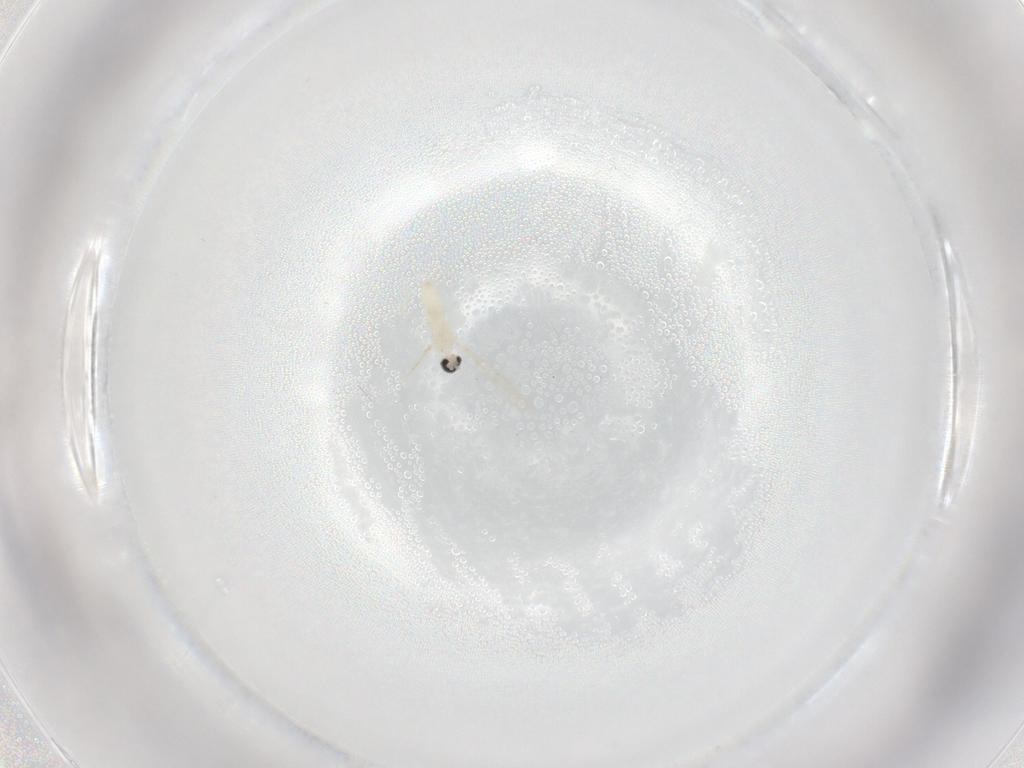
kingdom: Animalia
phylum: Arthropoda
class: Insecta
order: Diptera
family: Cecidomyiidae
